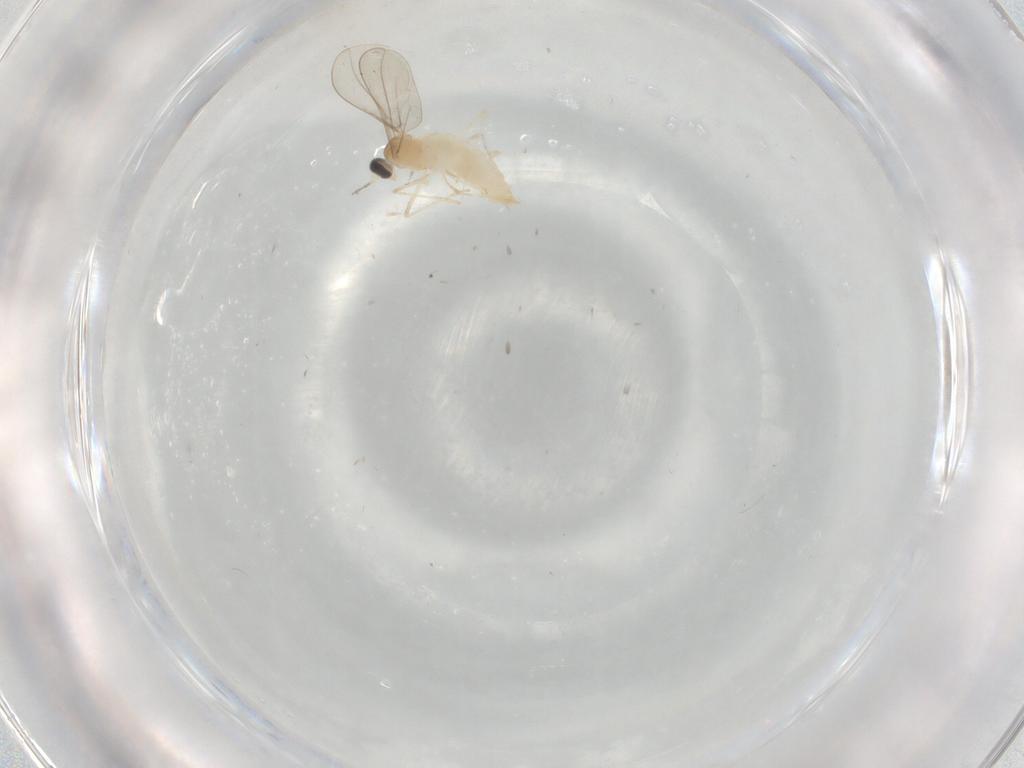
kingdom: Animalia
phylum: Arthropoda
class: Insecta
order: Diptera
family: Cecidomyiidae
